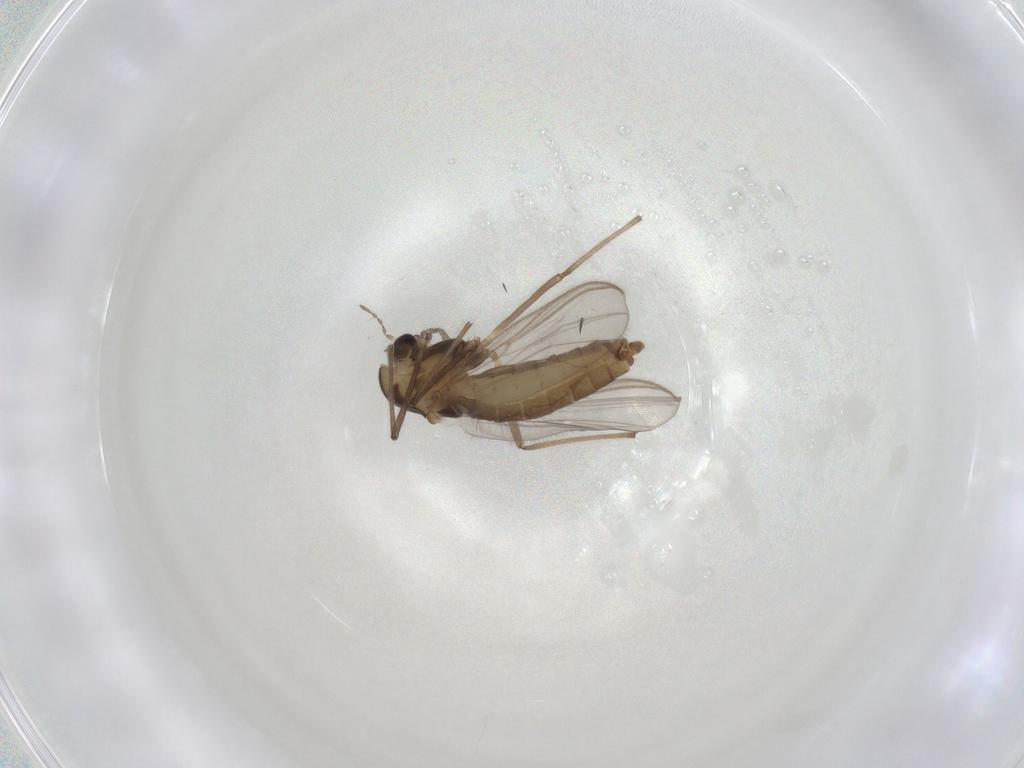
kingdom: Animalia
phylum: Arthropoda
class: Insecta
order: Diptera
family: Chironomidae
